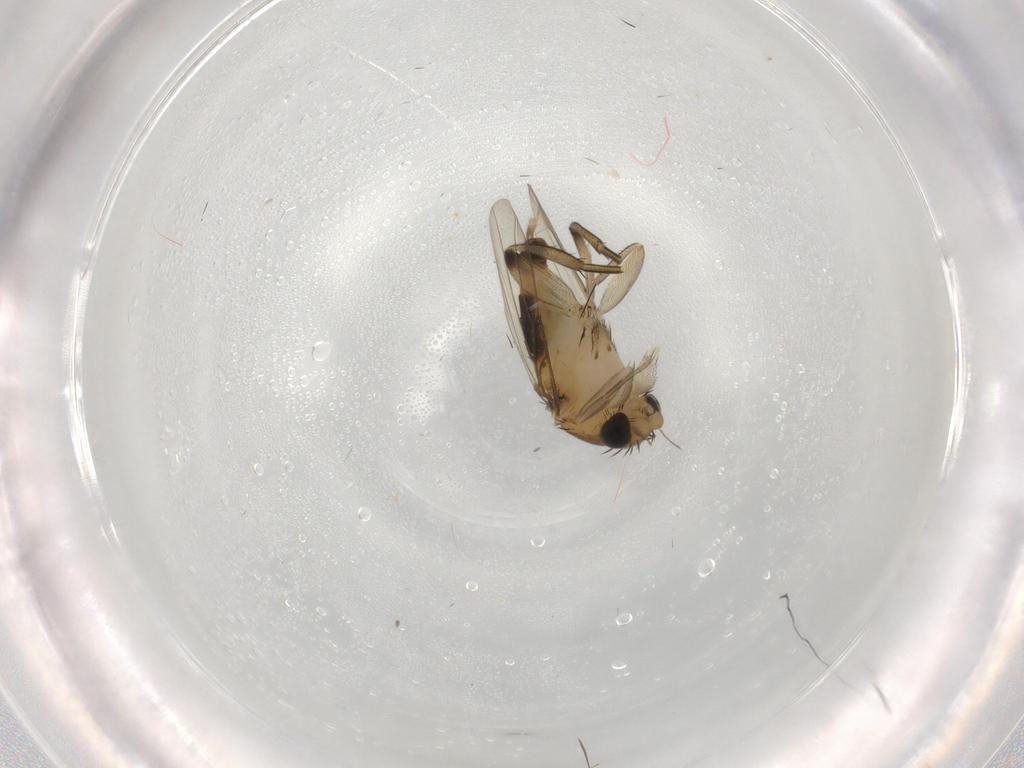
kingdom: Animalia
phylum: Arthropoda
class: Insecta
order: Diptera
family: Phoridae
